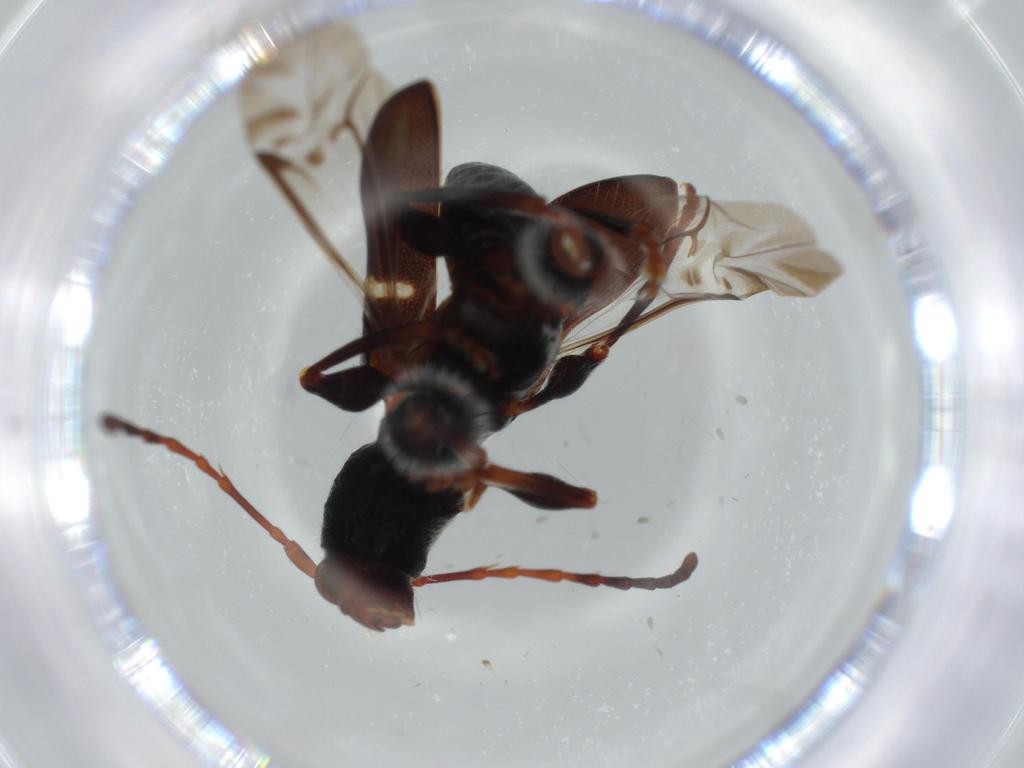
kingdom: Animalia
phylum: Arthropoda
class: Insecta
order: Coleoptera
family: Cerambycidae
